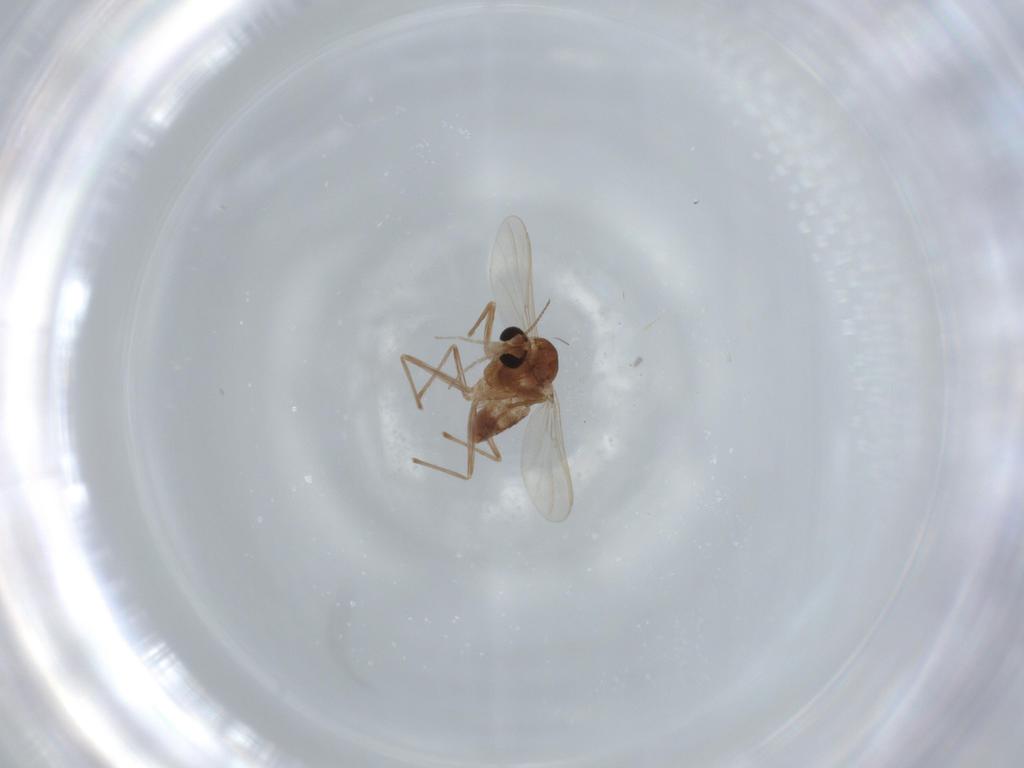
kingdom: Animalia
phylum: Arthropoda
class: Insecta
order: Diptera
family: Chironomidae
